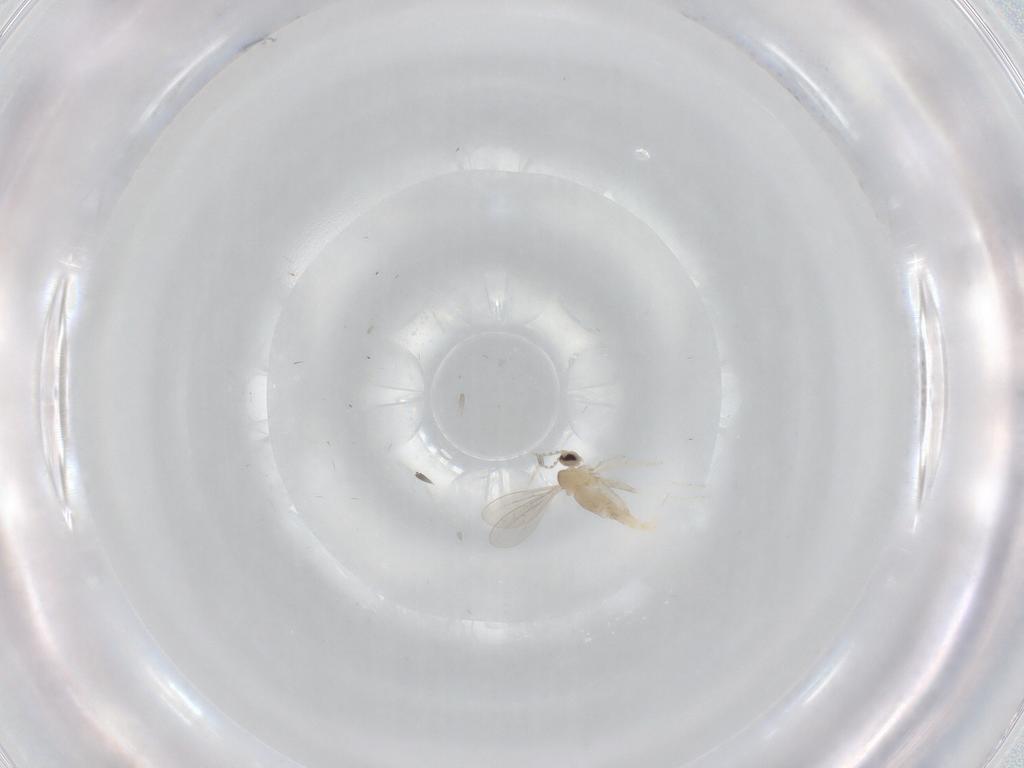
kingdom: Animalia
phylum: Arthropoda
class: Insecta
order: Diptera
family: Cecidomyiidae
